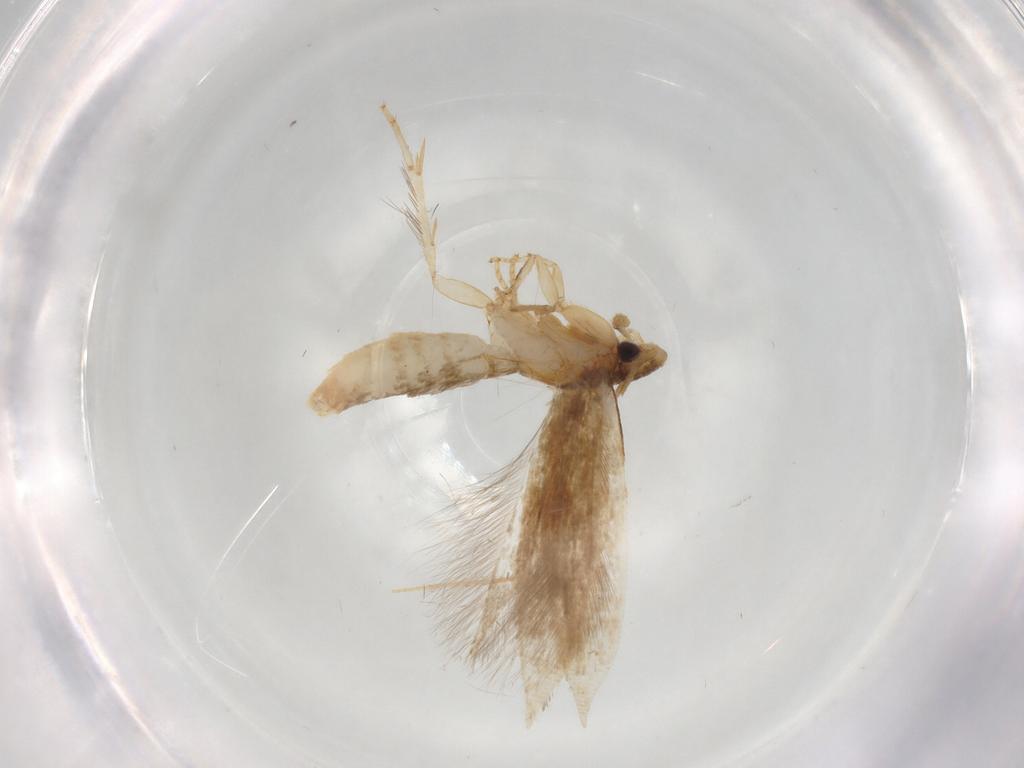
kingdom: Animalia
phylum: Arthropoda
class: Insecta
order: Lepidoptera
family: Tineidae
